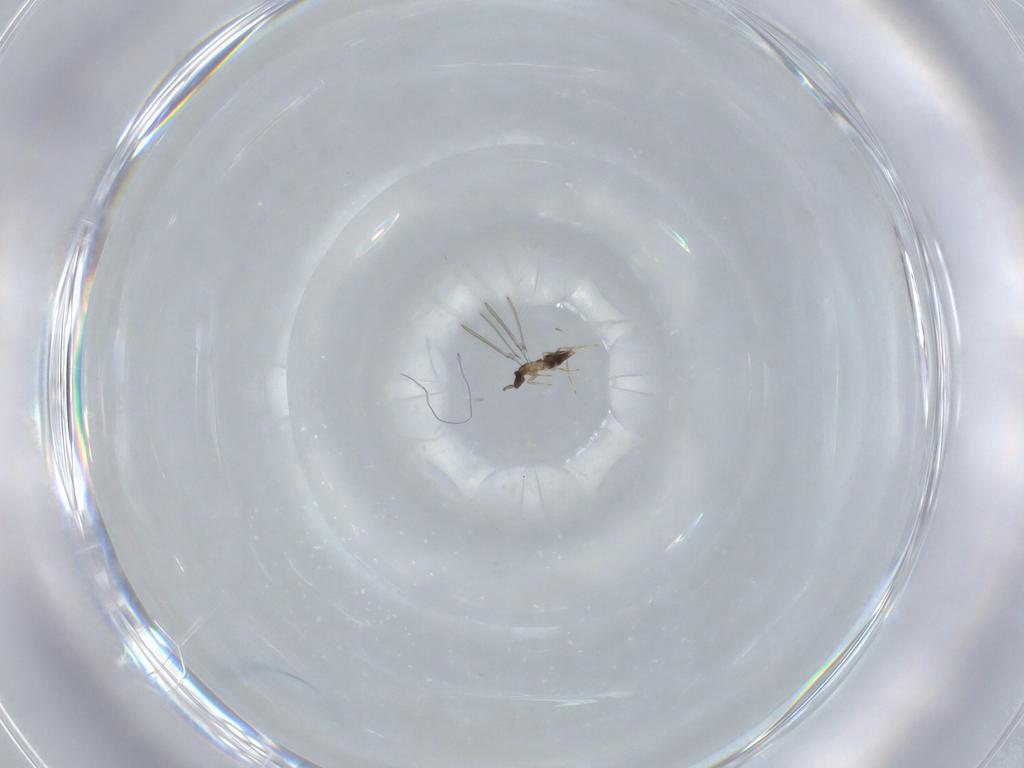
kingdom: Animalia
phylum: Arthropoda
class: Insecta
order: Hymenoptera
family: Mymaridae
